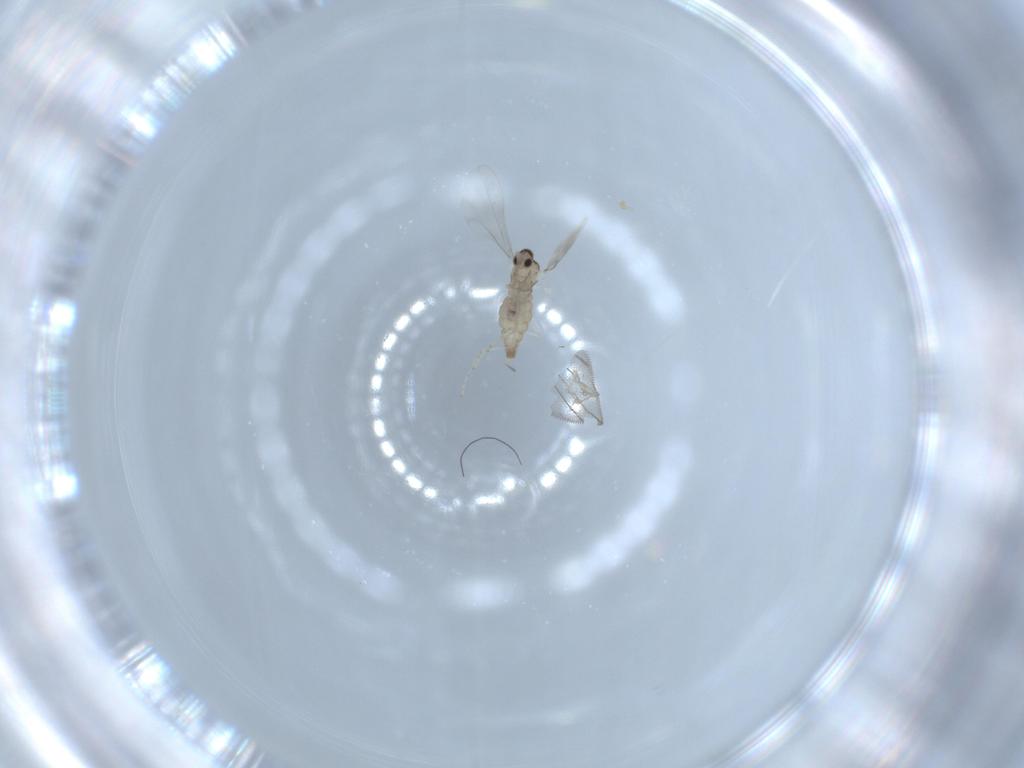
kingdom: Animalia
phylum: Arthropoda
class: Insecta
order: Diptera
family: Cecidomyiidae
